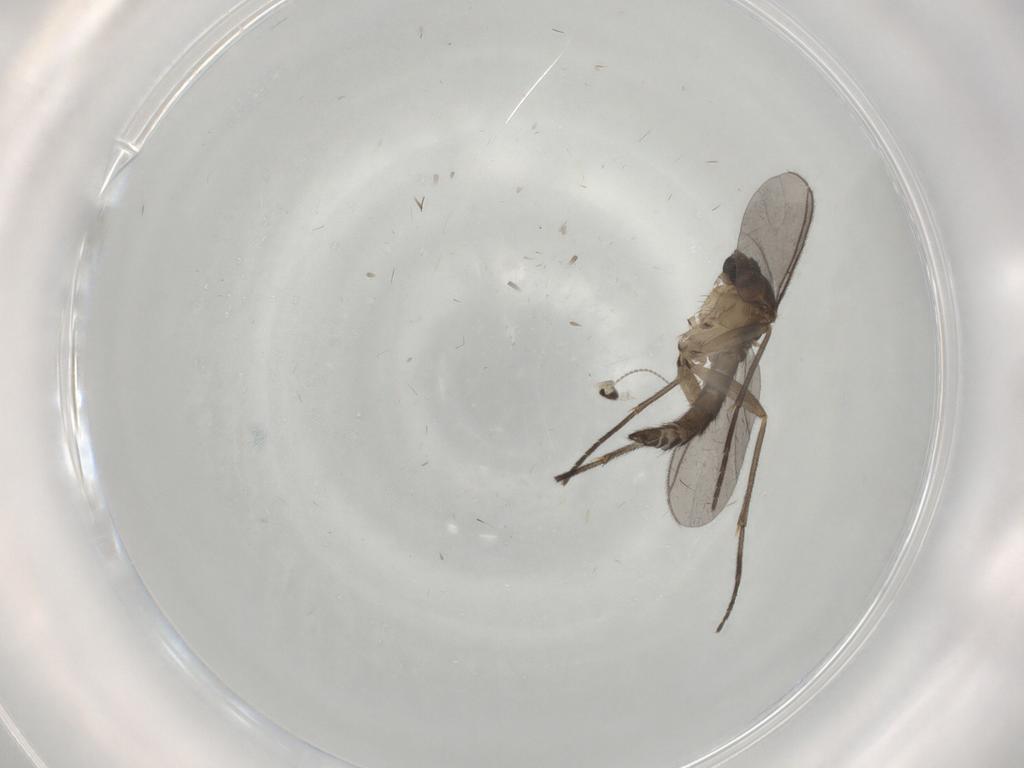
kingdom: Animalia
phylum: Arthropoda
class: Insecta
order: Diptera
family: Sciaridae
